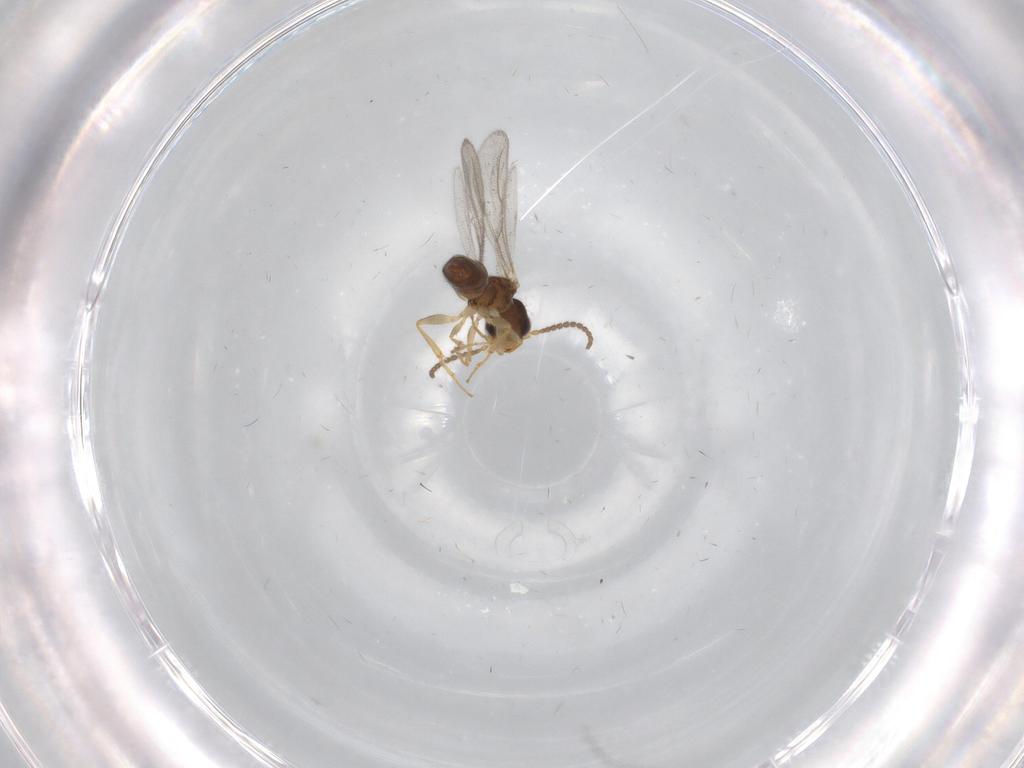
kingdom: Animalia
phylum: Arthropoda
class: Insecta
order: Hymenoptera
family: Bethylidae
